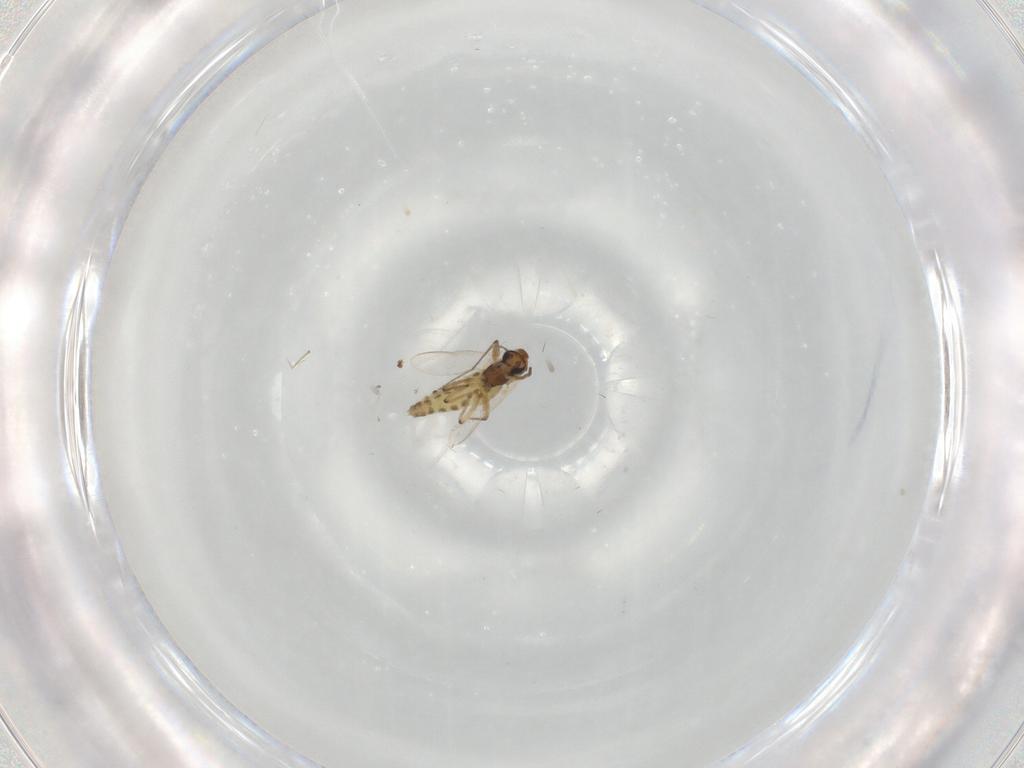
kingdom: Animalia
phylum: Arthropoda
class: Insecta
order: Diptera
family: Chironomidae
